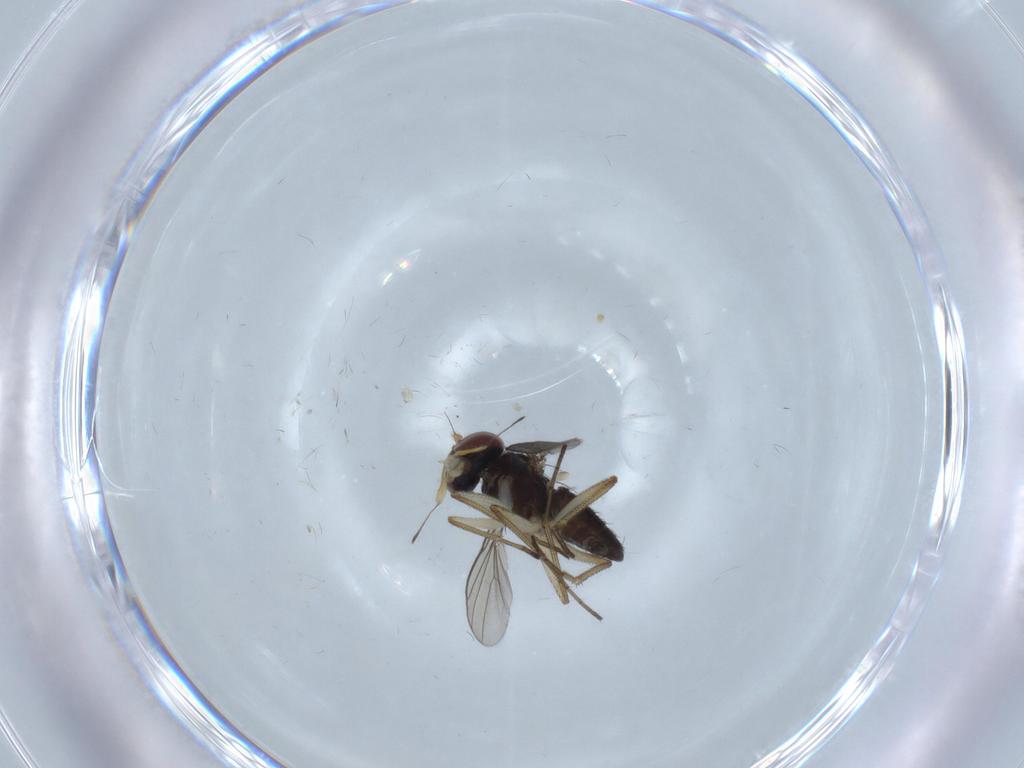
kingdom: Animalia
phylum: Arthropoda
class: Insecta
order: Diptera
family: Dolichopodidae
